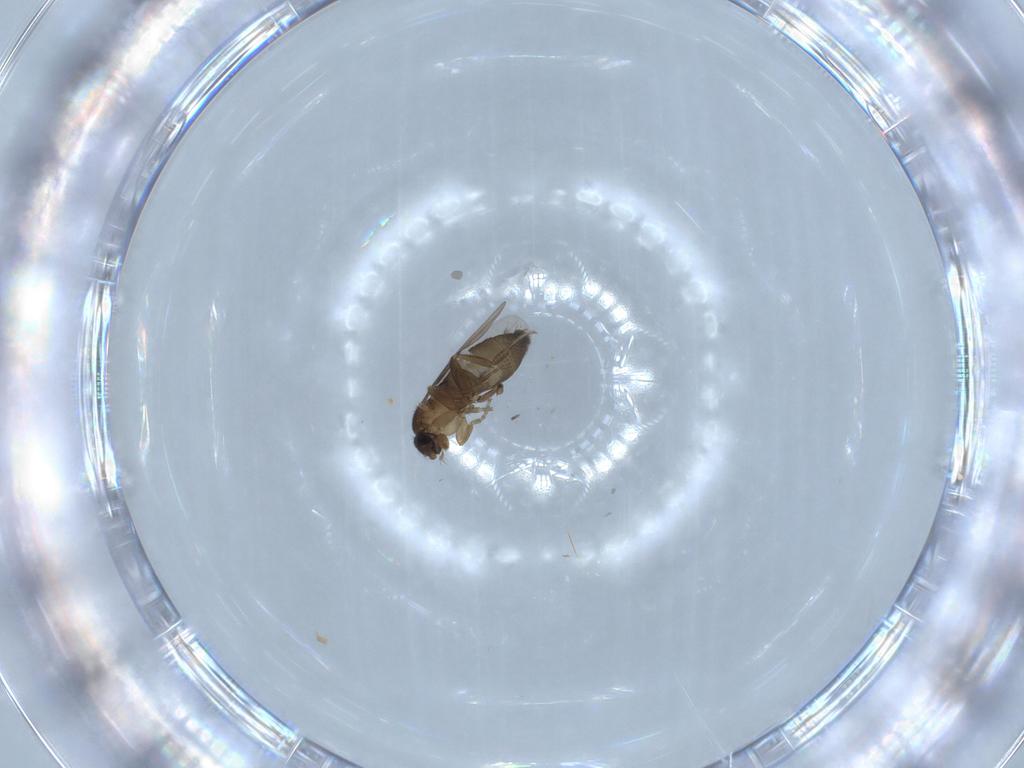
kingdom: Animalia
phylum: Arthropoda
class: Insecta
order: Diptera
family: Phoridae
